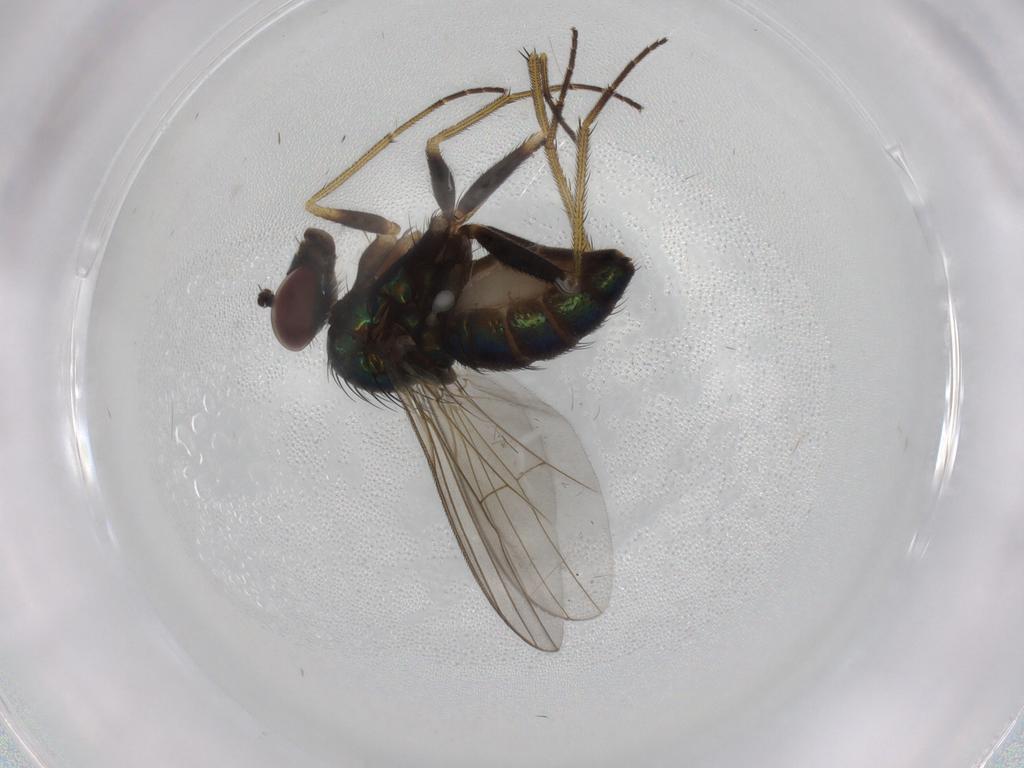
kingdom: Animalia
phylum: Arthropoda
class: Insecta
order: Diptera
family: Dolichopodidae
